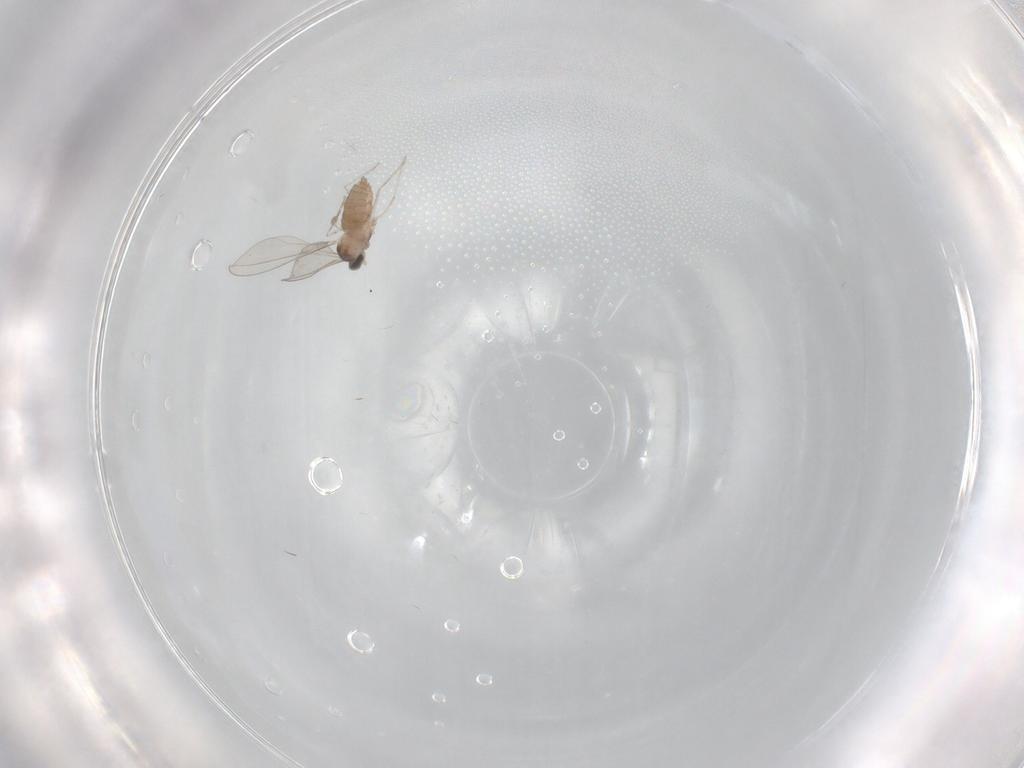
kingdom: Animalia
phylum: Arthropoda
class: Insecta
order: Diptera
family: Cecidomyiidae
